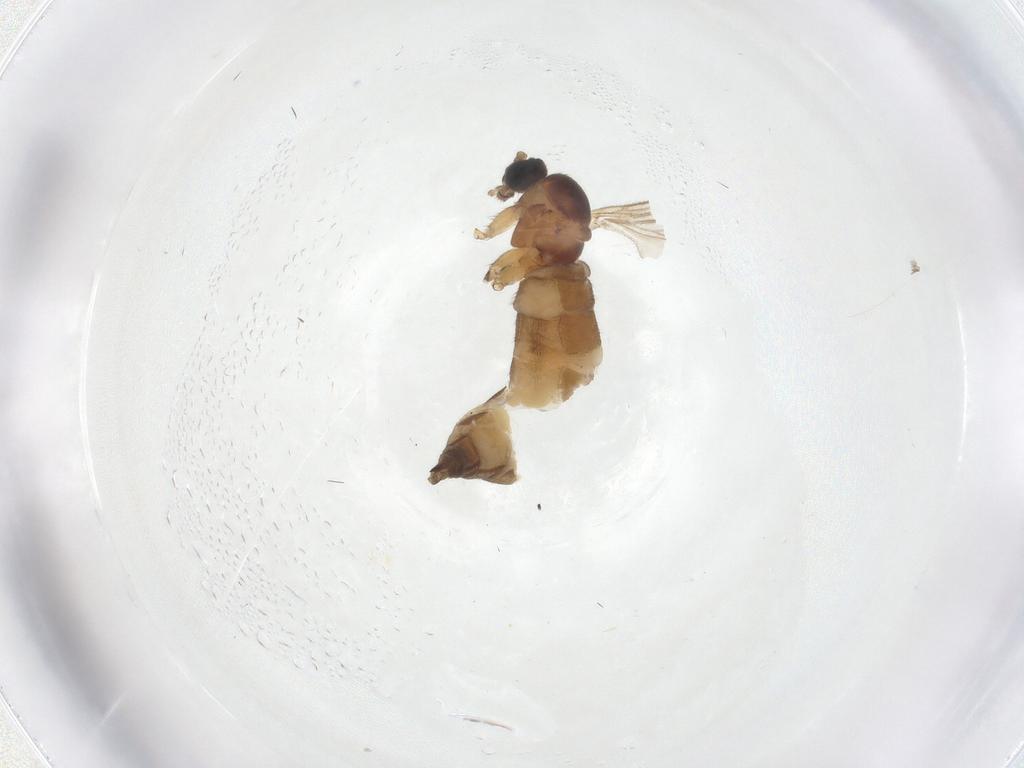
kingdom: Animalia
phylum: Arthropoda
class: Insecta
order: Diptera
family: Sciaridae
